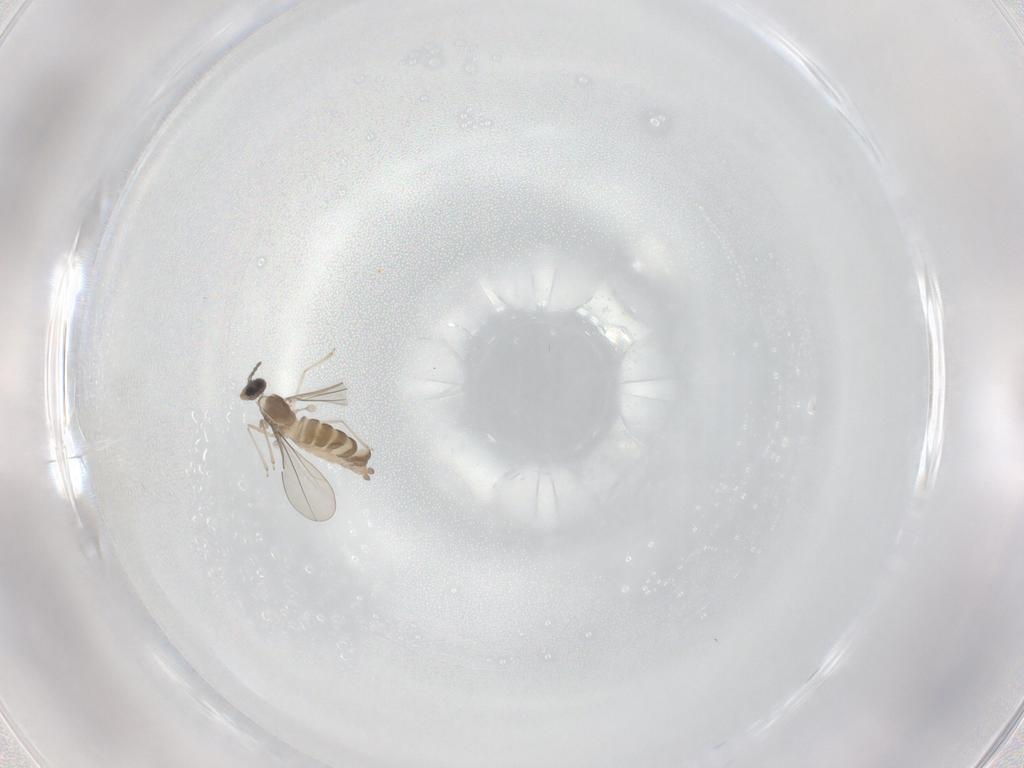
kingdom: Animalia
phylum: Arthropoda
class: Insecta
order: Diptera
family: Cecidomyiidae
